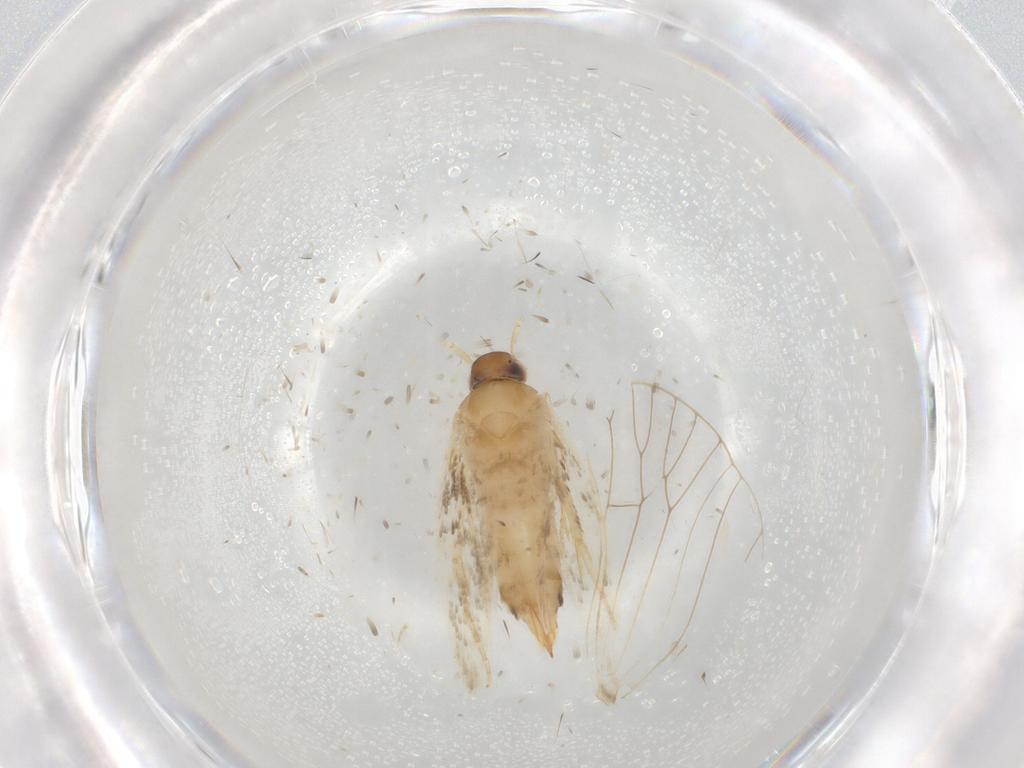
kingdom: Animalia
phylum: Arthropoda
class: Insecta
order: Lepidoptera
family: Cosmopterigidae
